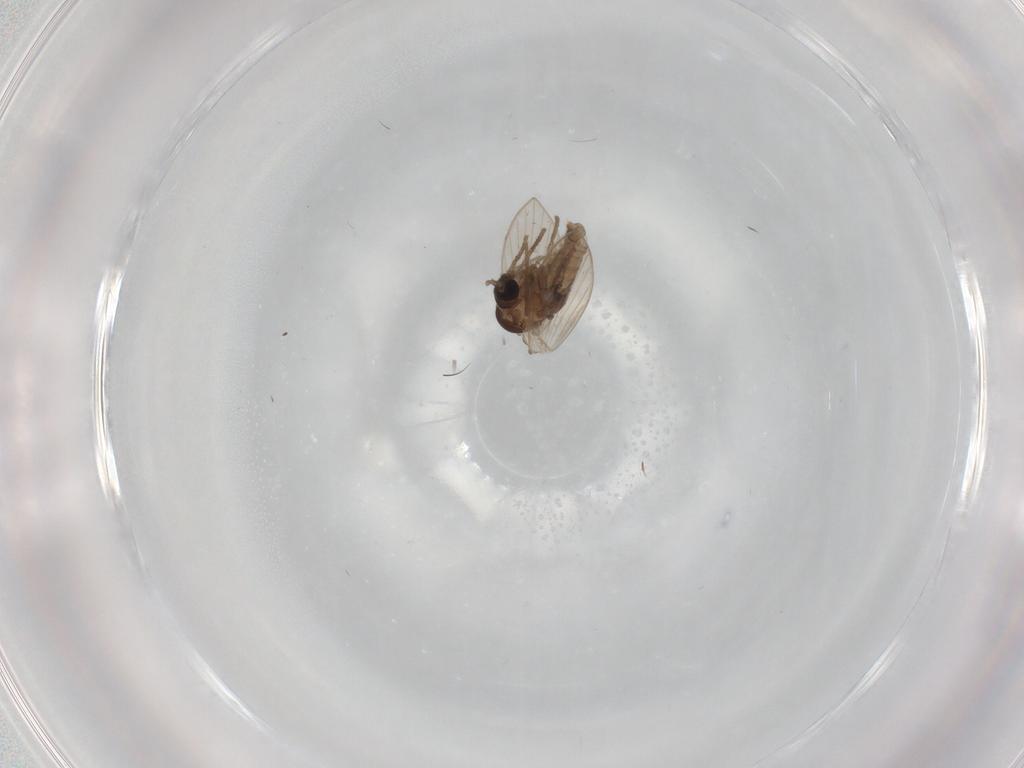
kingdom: Animalia
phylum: Arthropoda
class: Insecta
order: Diptera
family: Psychodidae
